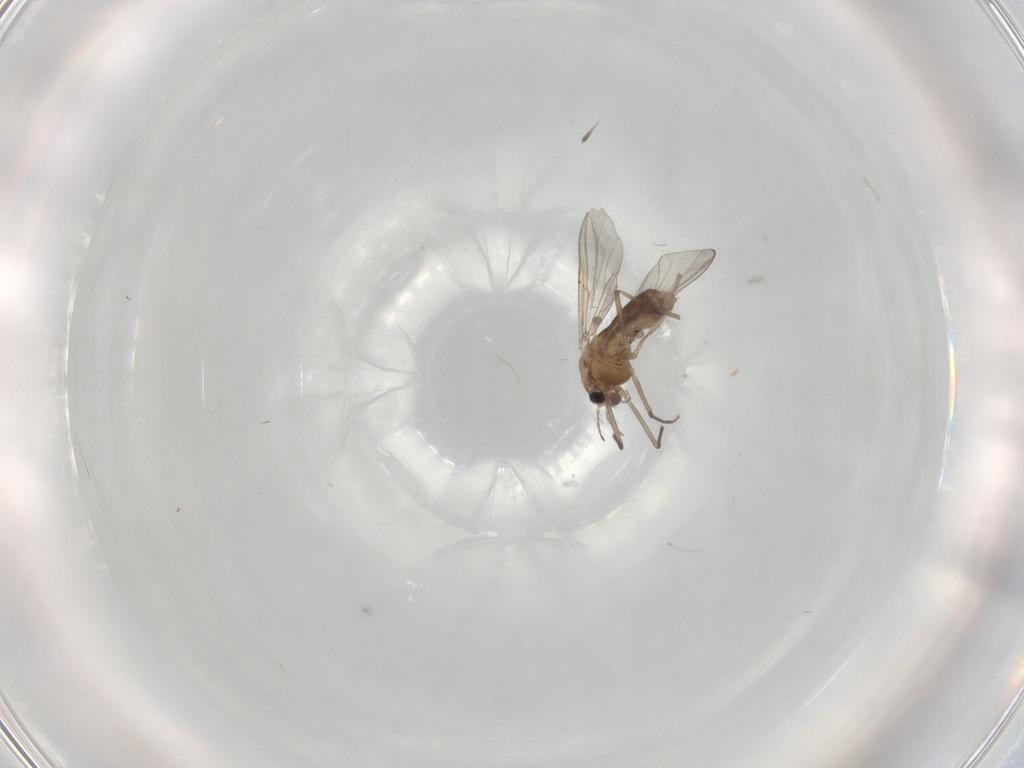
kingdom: Animalia
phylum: Arthropoda
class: Insecta
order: Diptera
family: Chironomidae
